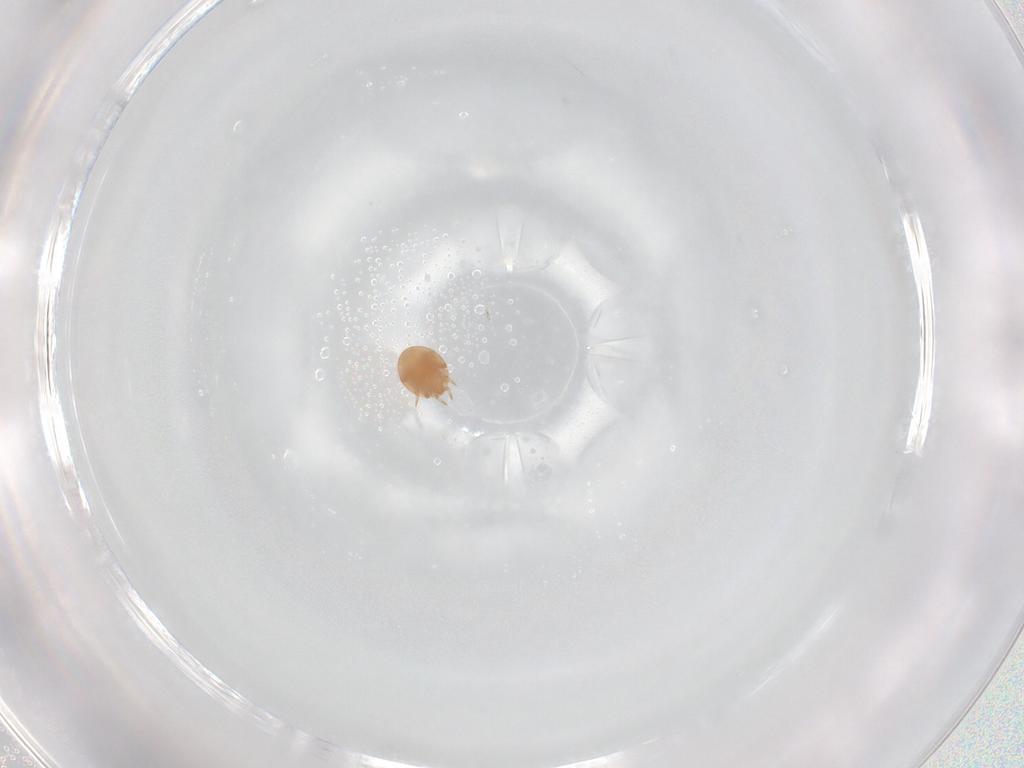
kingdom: Animalia
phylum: Arthropoda
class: Arachnida
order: Mesostigmata
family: Trematuridae
